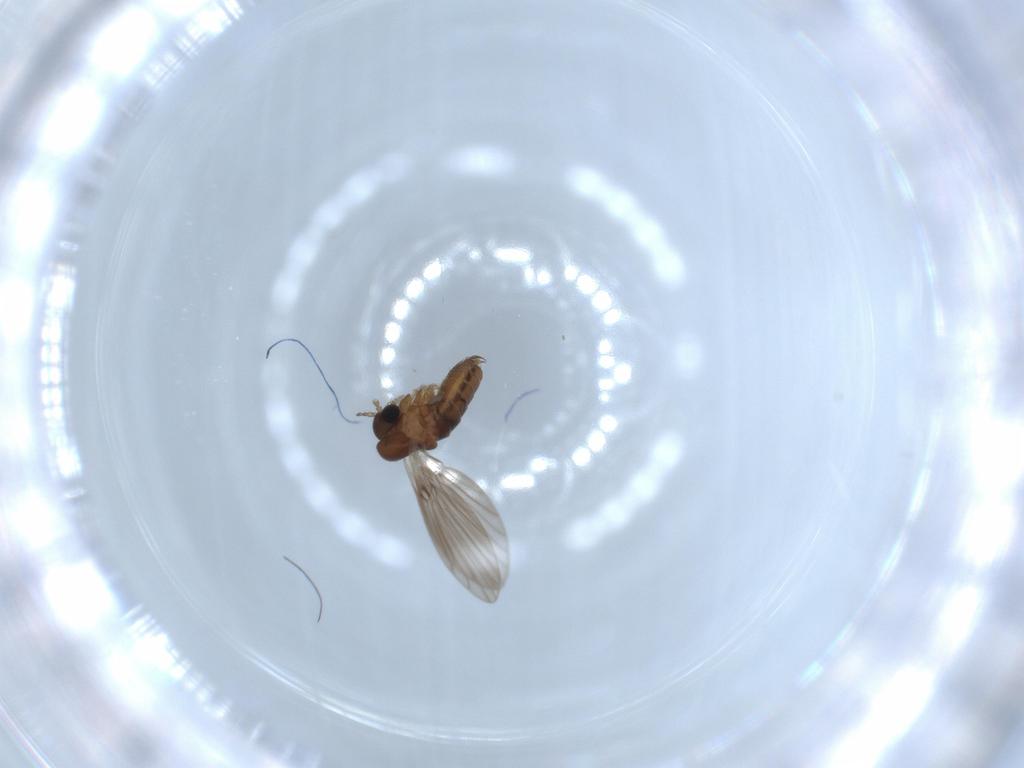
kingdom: Animalia
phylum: Arthropoda
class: Insecta
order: Diptera
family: Psychodidae
